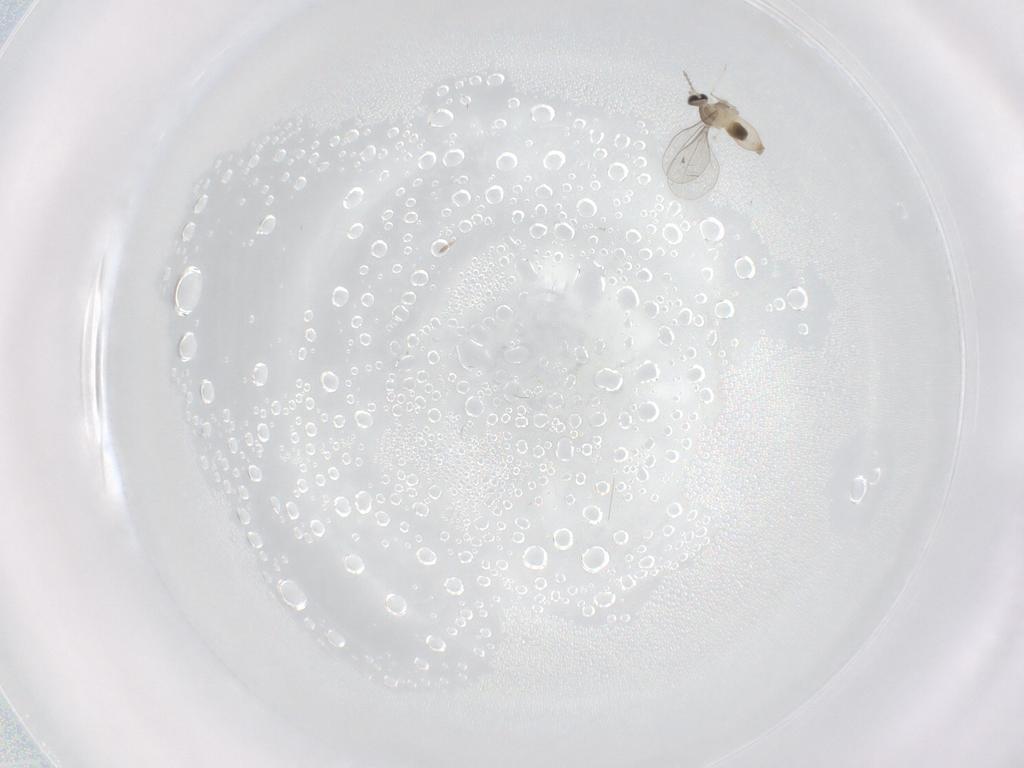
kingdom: Animalia
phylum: Arthropoda
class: Insecta
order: Diptera
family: Cecidomyiidae
